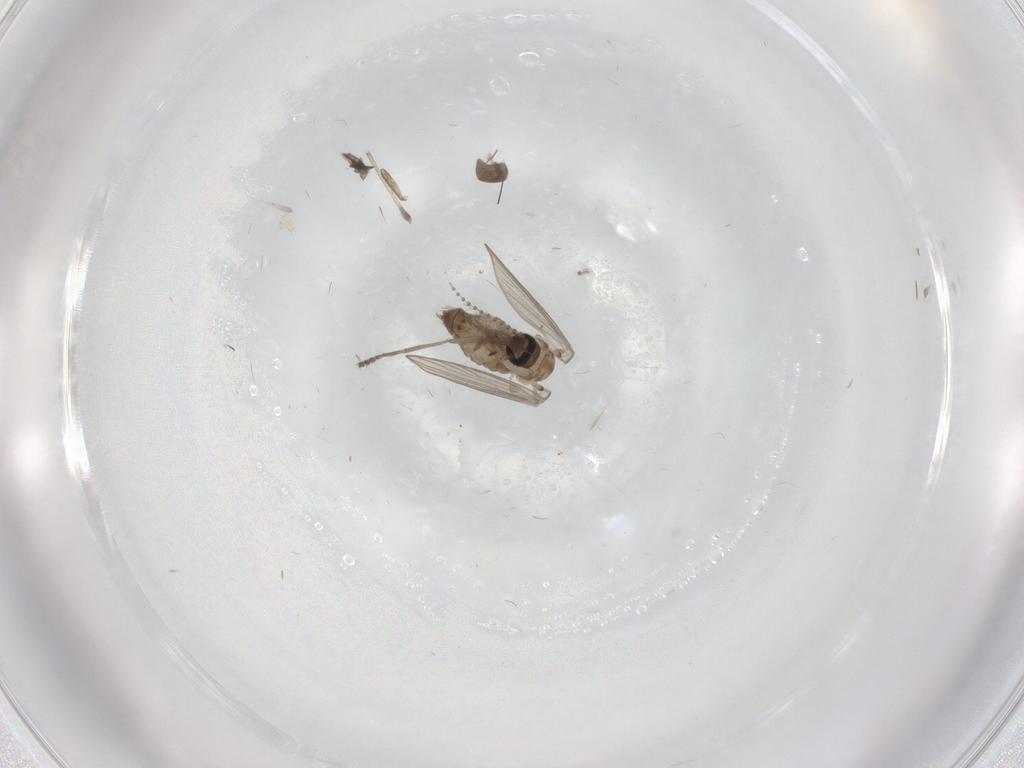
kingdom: Animalia
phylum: Arthropoda
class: Insecta
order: Diptera
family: Psychodidae
